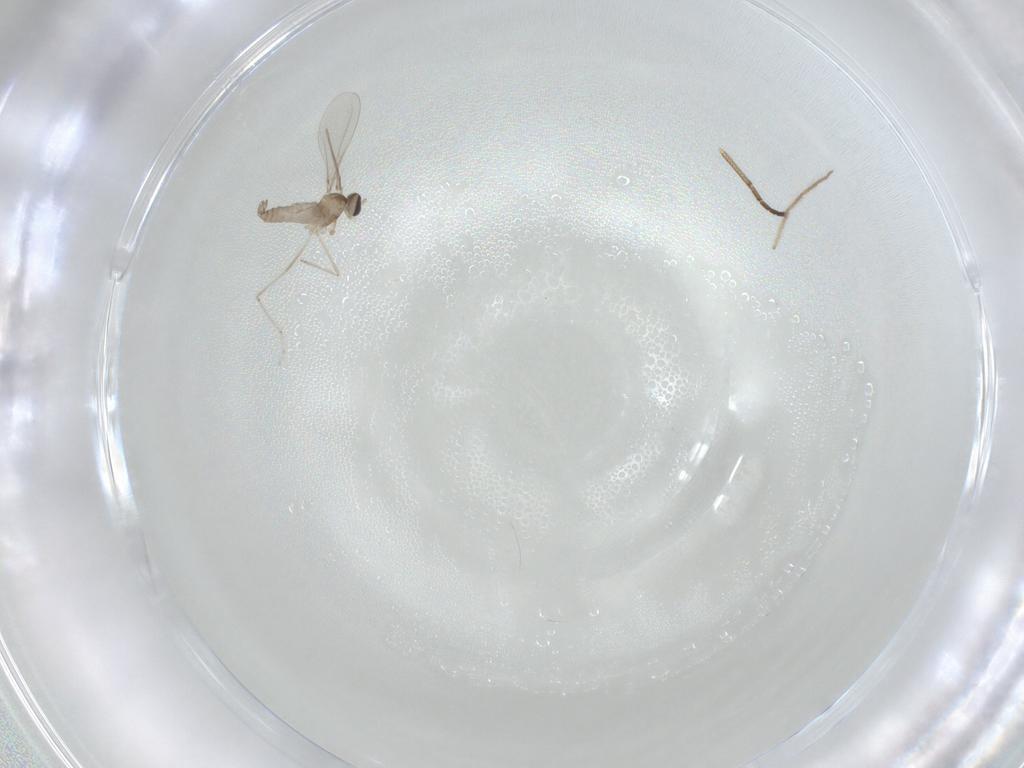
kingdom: Animalia
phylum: Arthropoda
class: Insecta
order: Diptera
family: Cecidomyiidae
